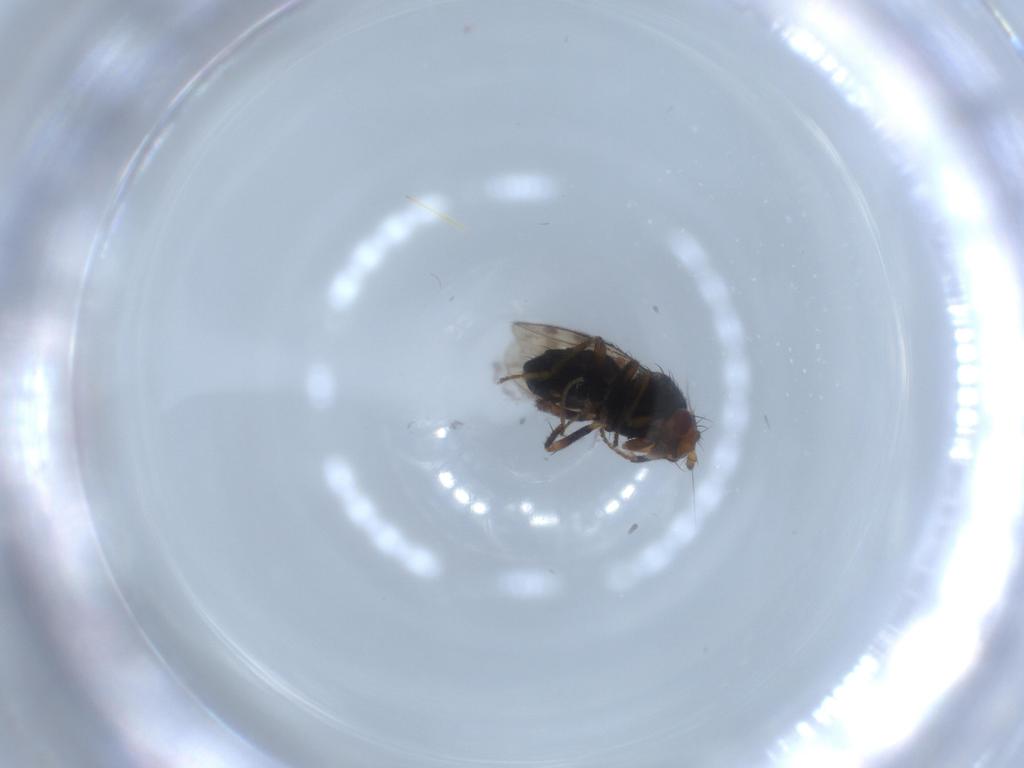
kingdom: Animalia
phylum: Arthropoda
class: Insecta
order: Diptera
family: Sphaeroceridae
